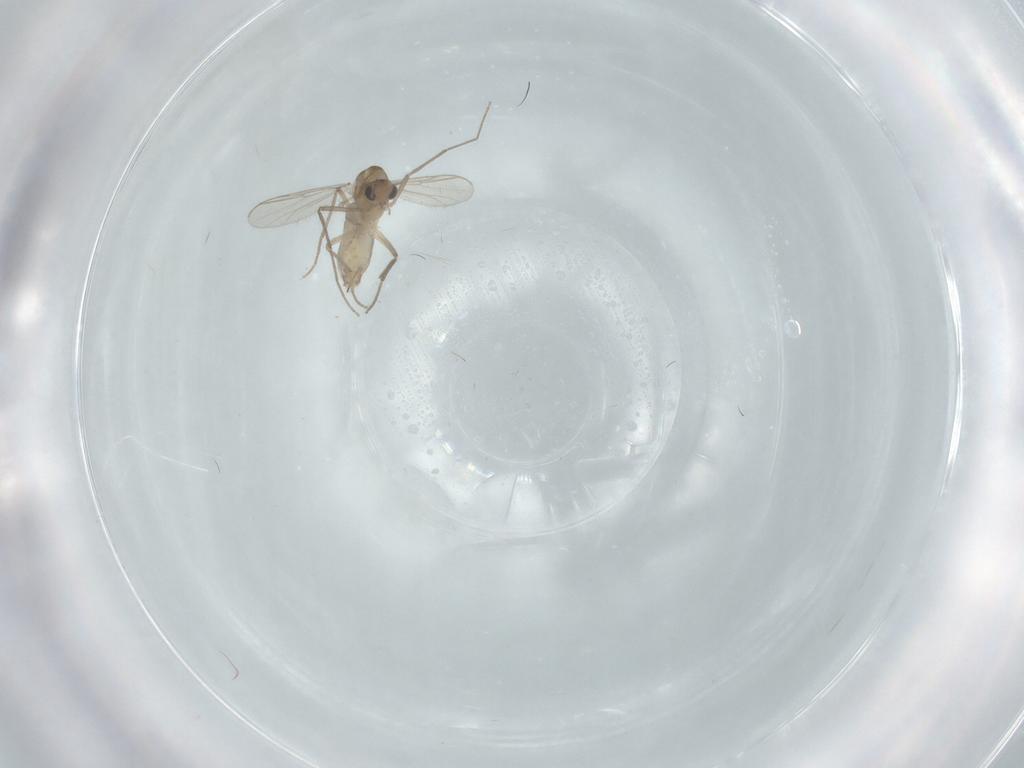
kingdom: Animalia
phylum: Arthropoda
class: Insecta
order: Diptera
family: Chironomidae
